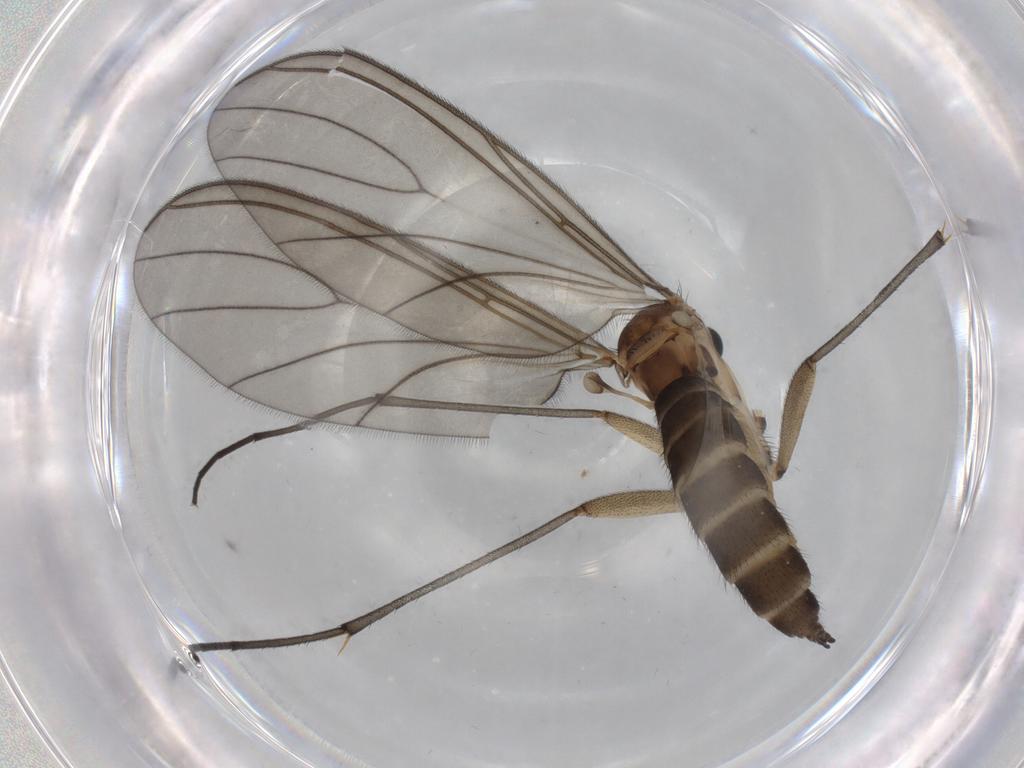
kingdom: Animalia
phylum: Arthropoda
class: Insecta
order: Diptera
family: Sciaridae
